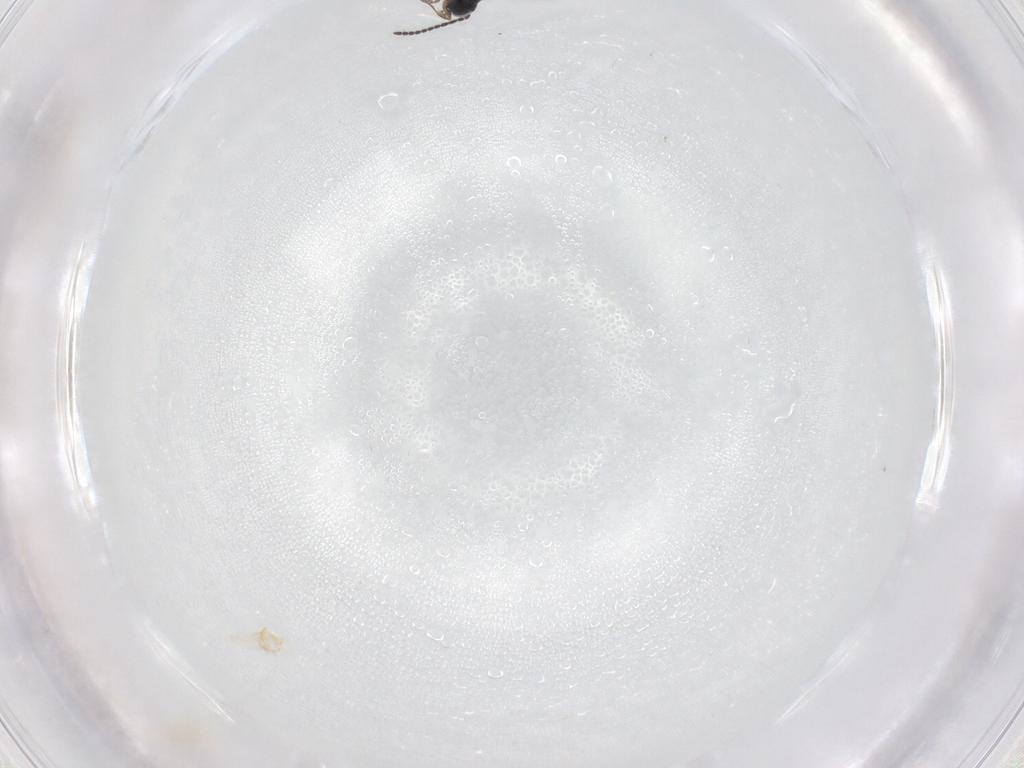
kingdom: Animalia
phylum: Arthropoda
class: Insecta
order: Hymenoptera
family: Scelionidae
